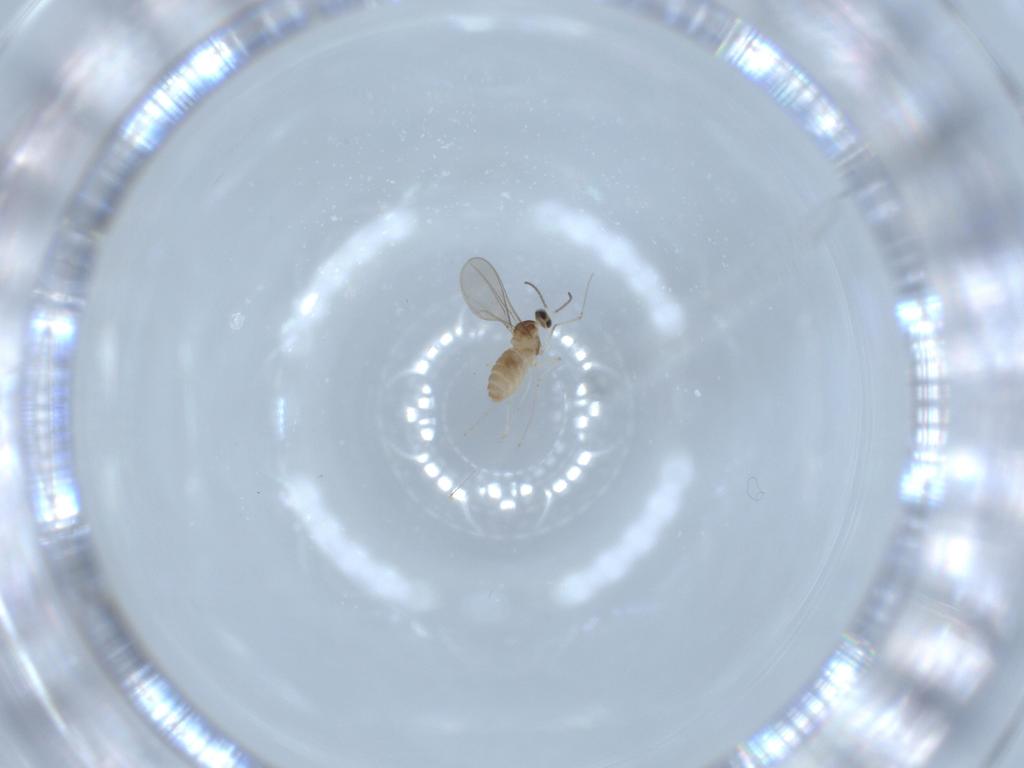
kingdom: Animalia
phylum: Arthropoda
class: Insecta
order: Diptera
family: Cecidomyiidae
